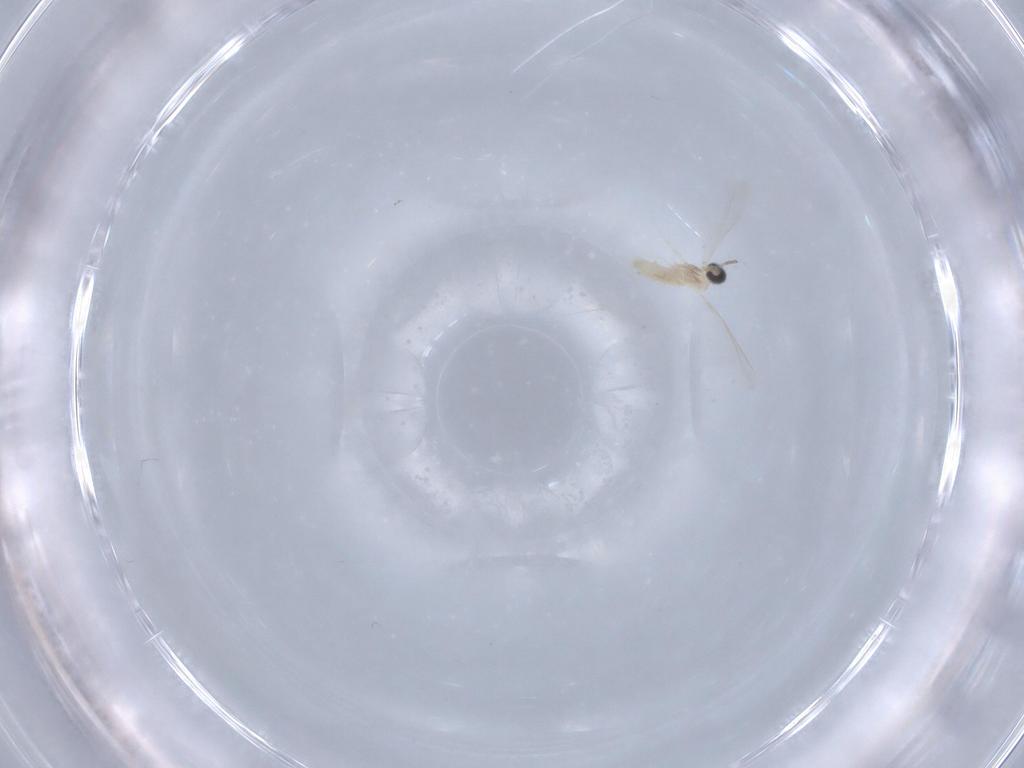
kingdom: Animalia
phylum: Arthropoda
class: Insecta
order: Diptera
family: Cecidomyiidae
